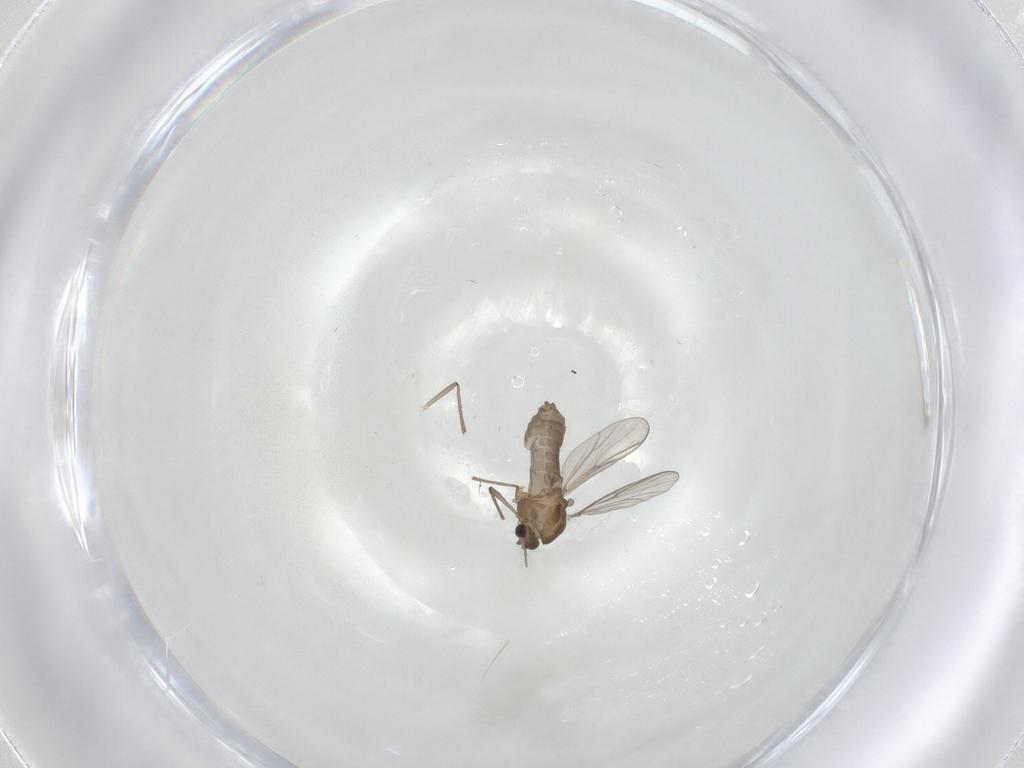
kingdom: Animalia
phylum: Arthropoda
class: Insecta
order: Diptera
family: Chironomidae
